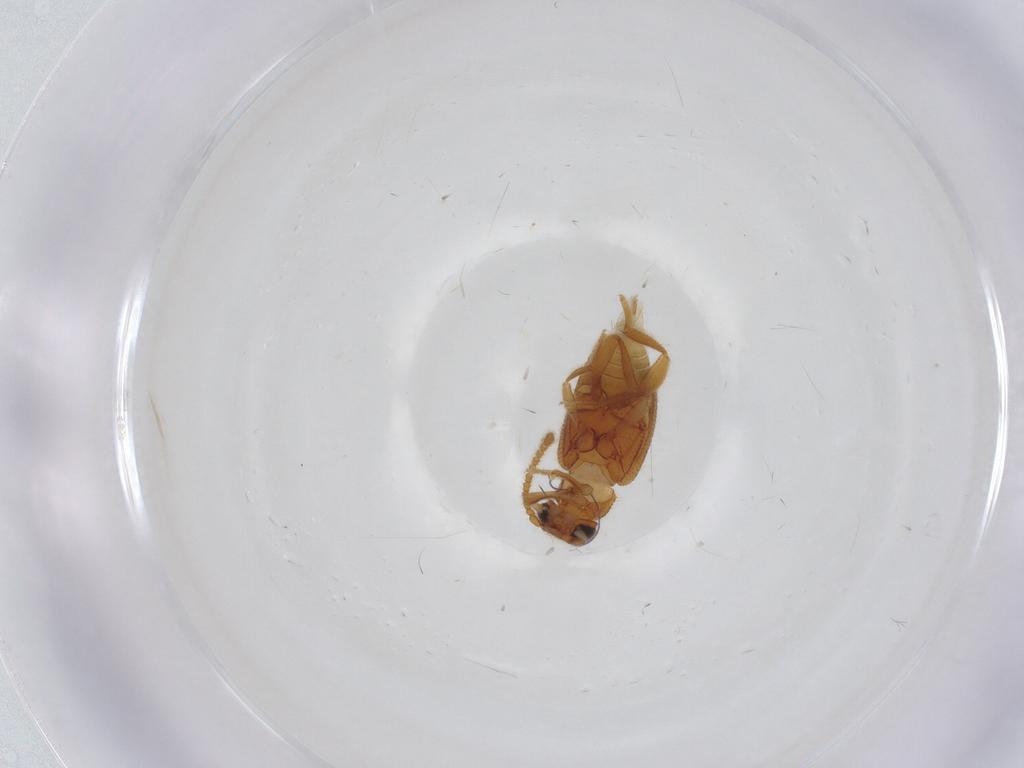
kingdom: Animalia
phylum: Arthropoda
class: Insecta
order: Coleoptera
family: Aderidae
